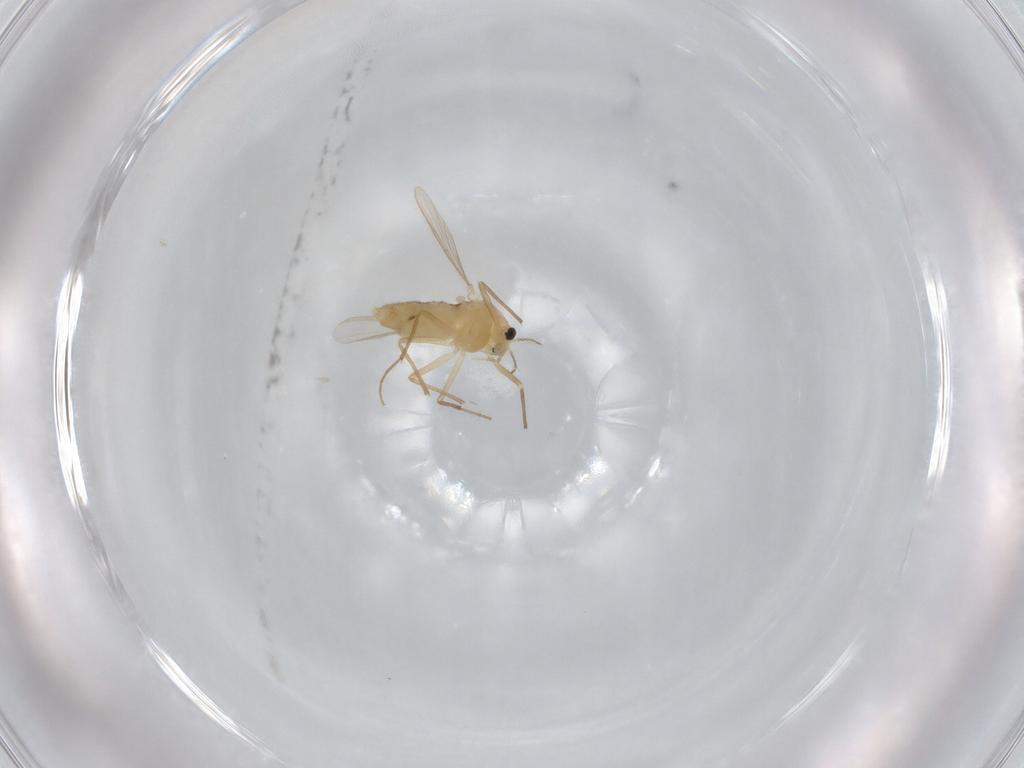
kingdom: Animalia
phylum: Arthropoda
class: Insecta
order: Diptera
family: Chironomidae
